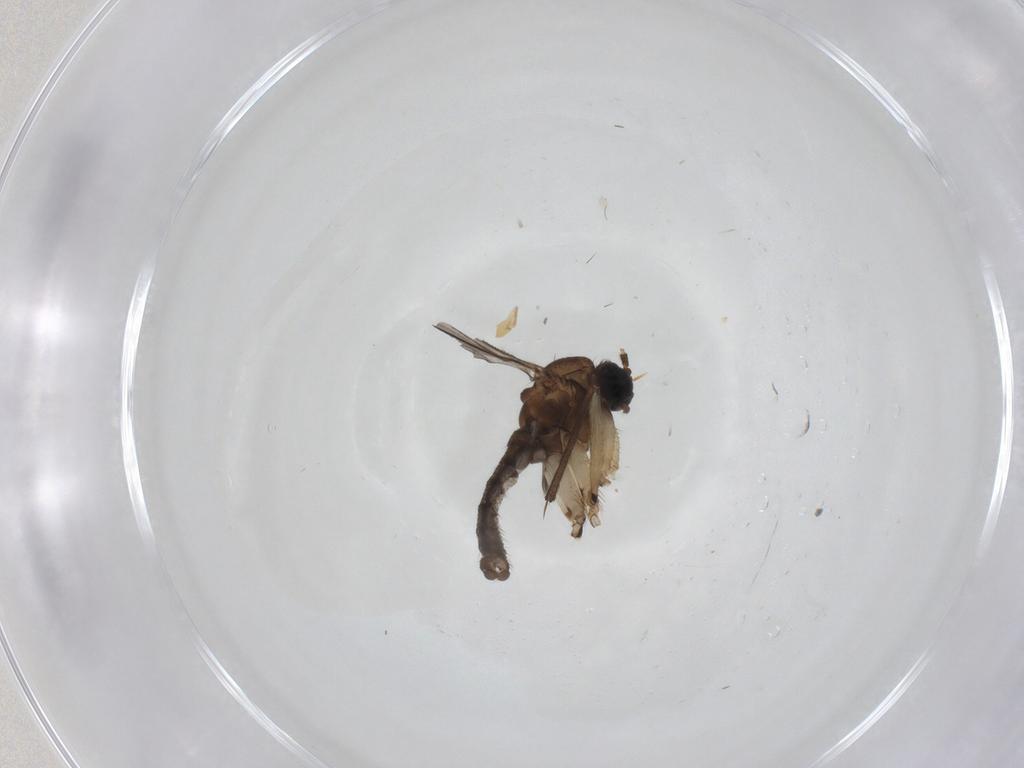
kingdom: Animalia
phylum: Arthropoda
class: Insecta
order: Diptera
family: Sciaridae
